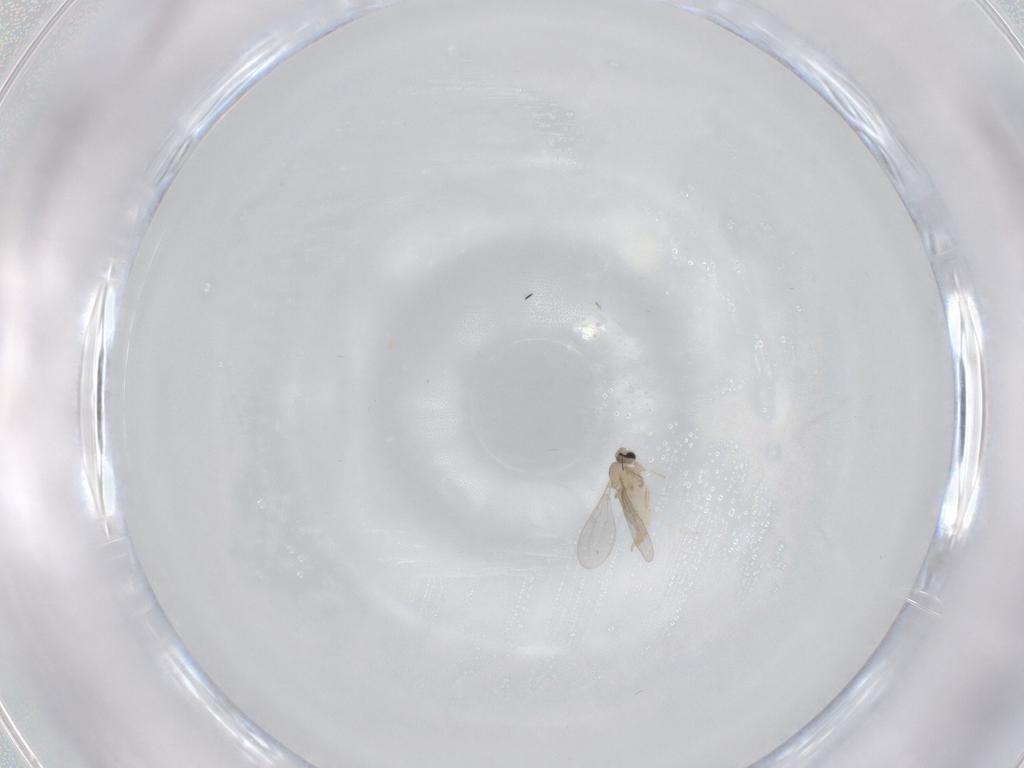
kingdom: Animalia
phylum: Arthropoda
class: Insecta
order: Diptera
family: Cecidomyiidae
